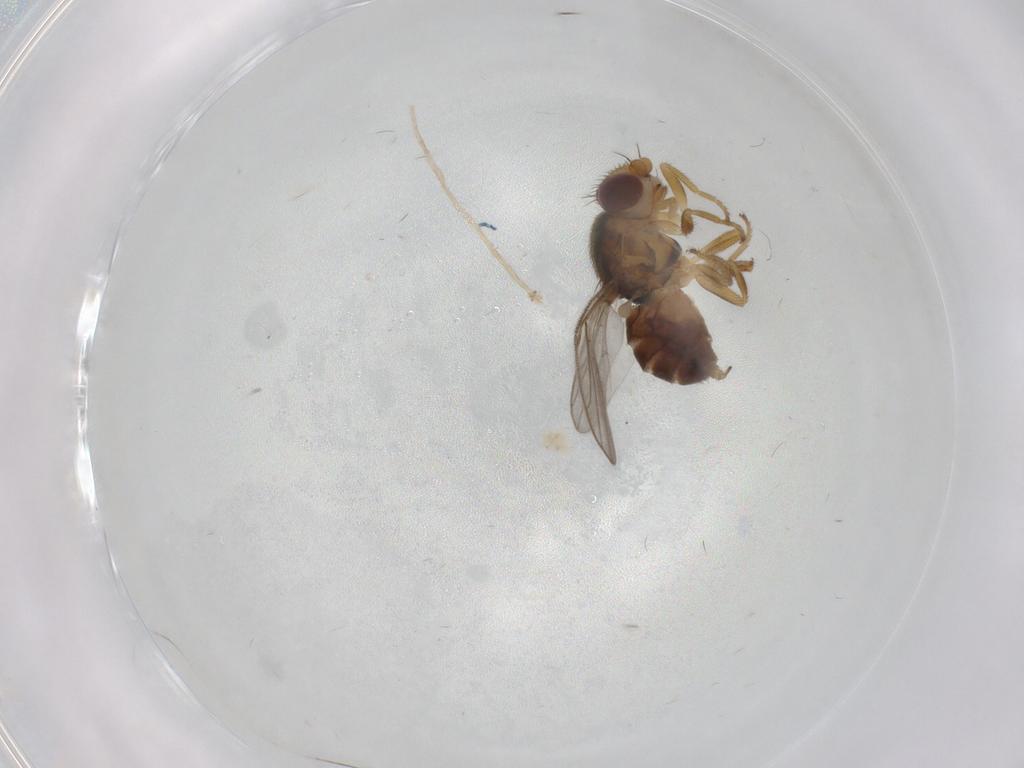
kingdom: Animalia
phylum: Arthropoda
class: Insecta
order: Diptera
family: Chloropidae
